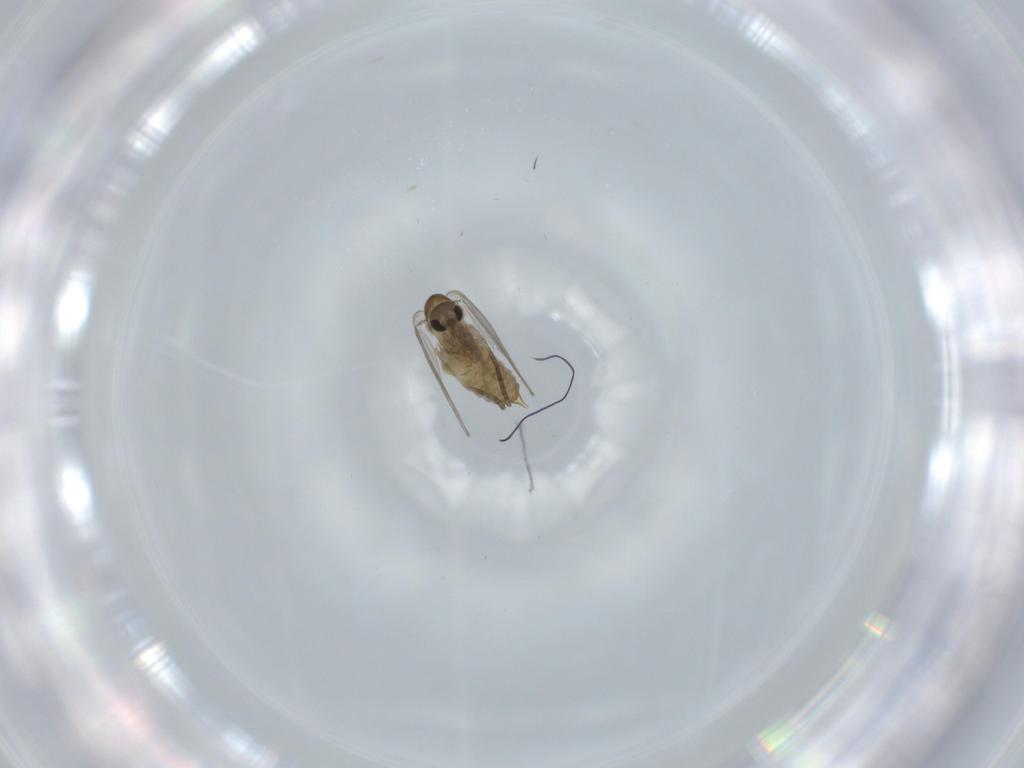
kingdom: Animalia
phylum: Arthropoda
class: Insecta
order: Diptera
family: Psychodidae
